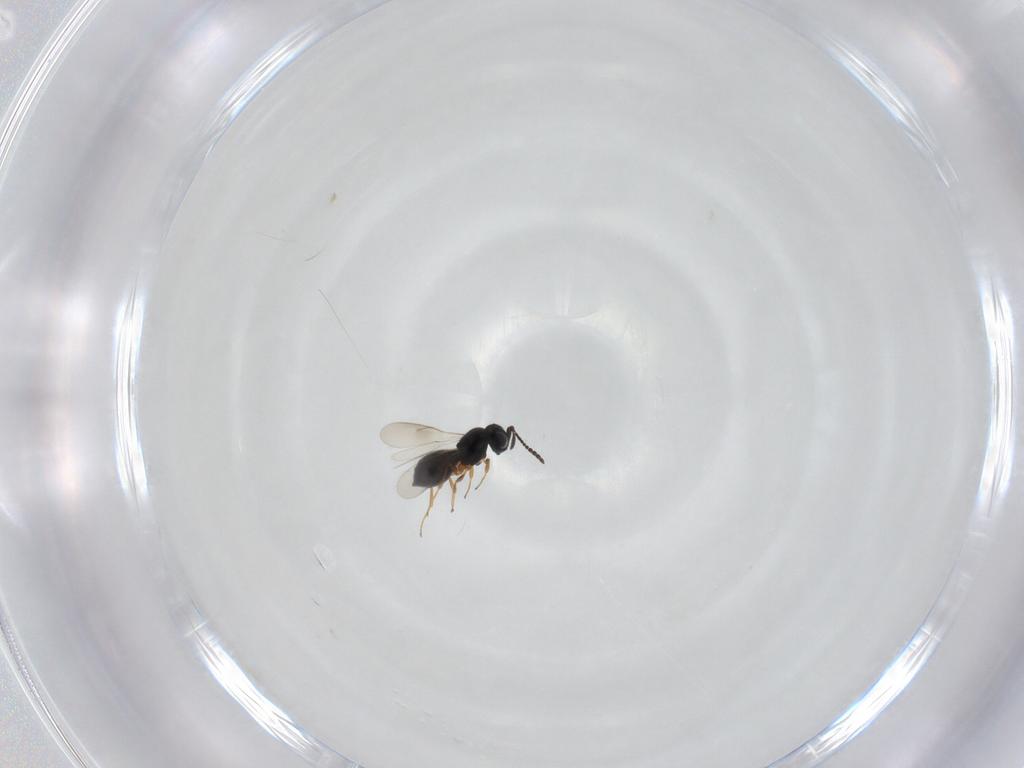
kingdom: Animalia
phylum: Arthropoda
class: Insecta
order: Hymenoptera
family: Scelionidae
